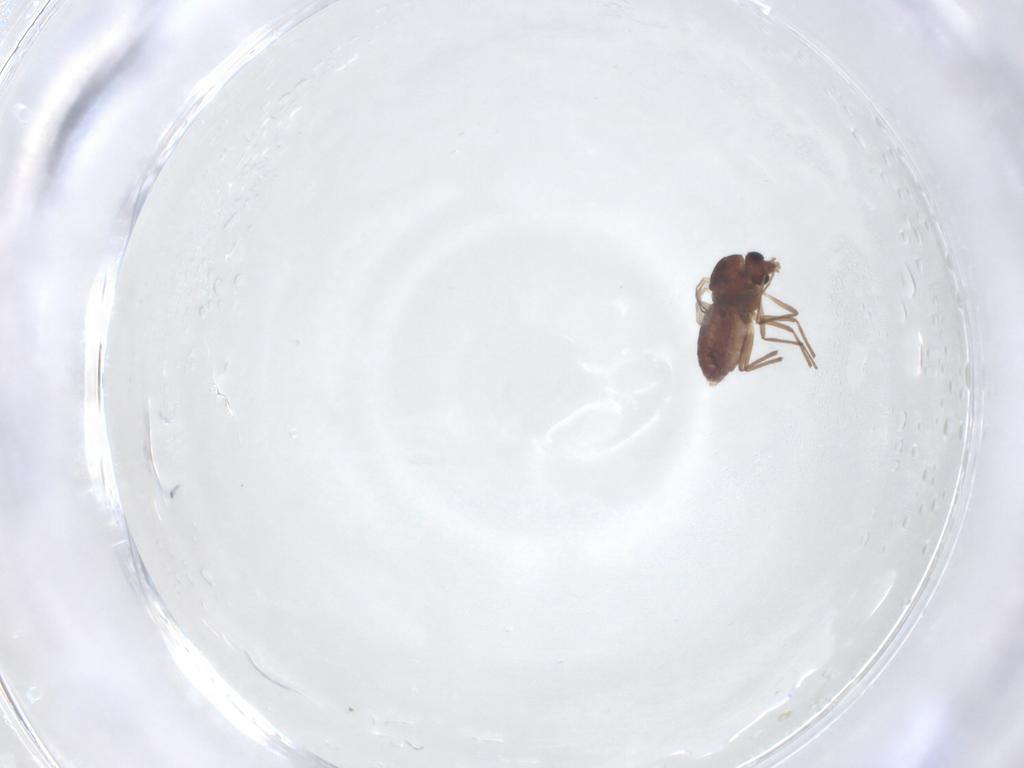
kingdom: Animalia
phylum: Arthropoda
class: Insecta
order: Diptera
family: Chironomidae
